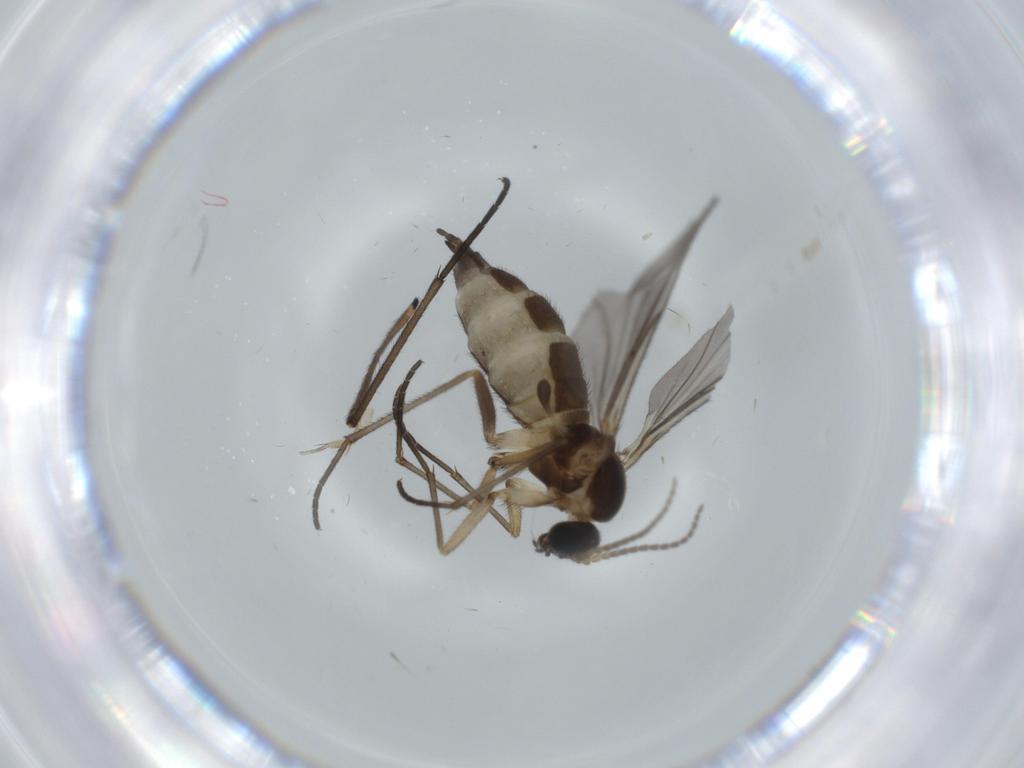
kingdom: Animalia
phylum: Arthropoda
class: Insecta
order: Diptera
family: Sciaridae
